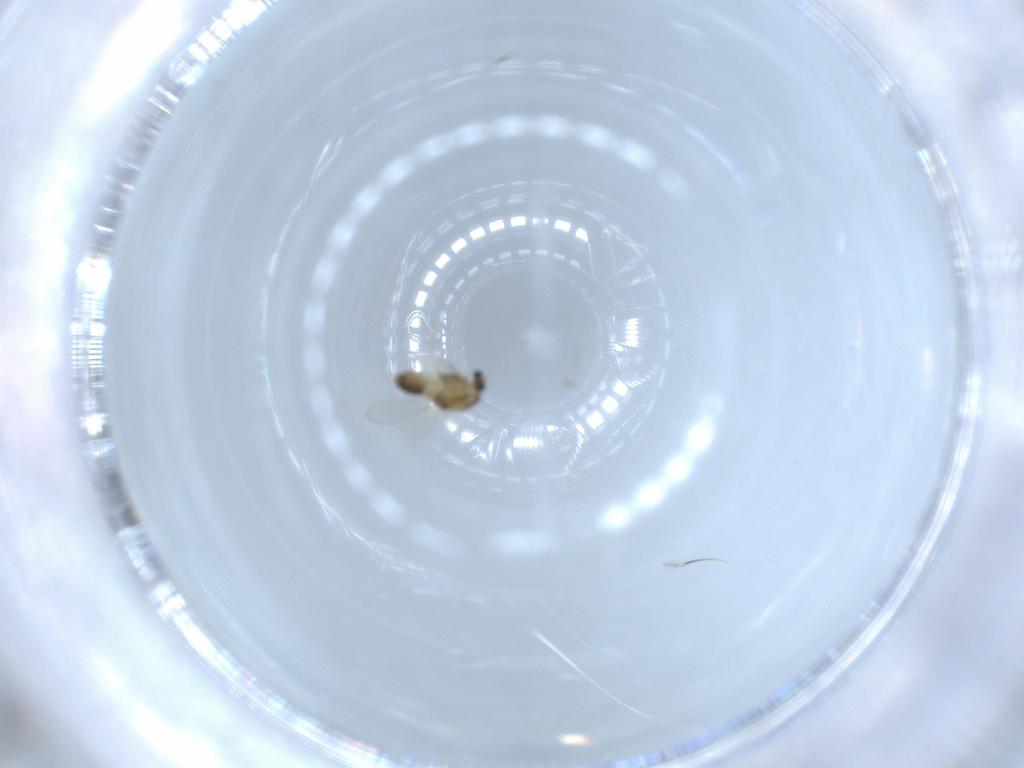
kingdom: Animalia
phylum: Arthropoda
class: Insecta
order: Diptera
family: Chironomidae
